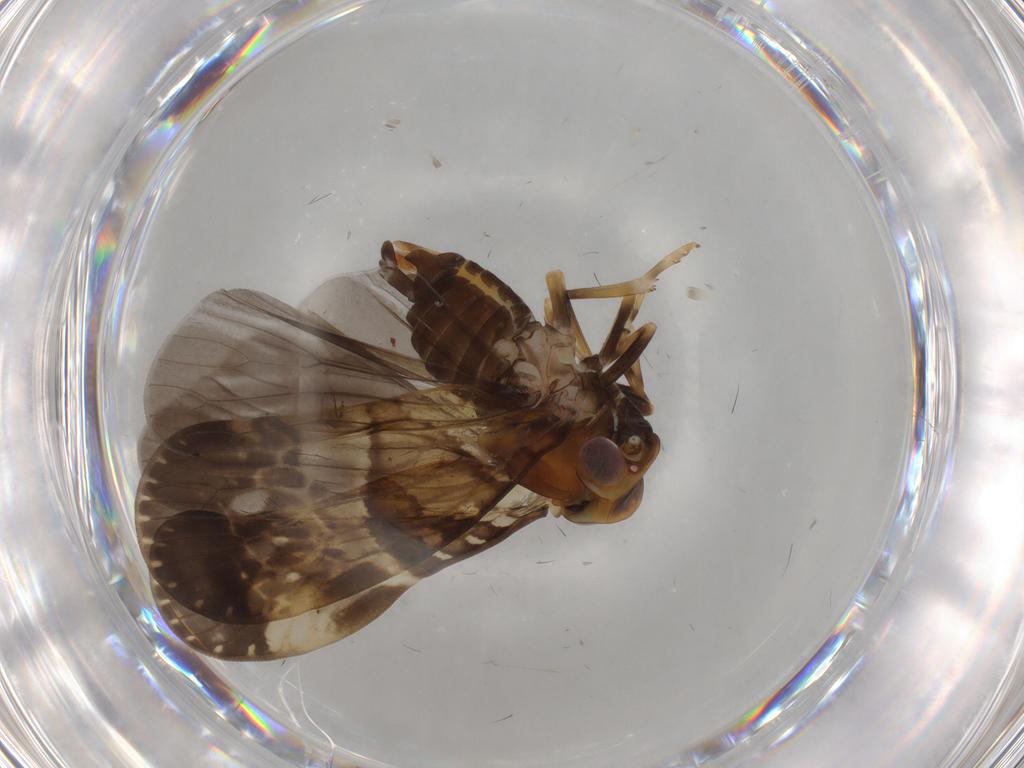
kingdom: Animalia
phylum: Arthropoda
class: Insecta
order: Hemiptera
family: Cixiidae
